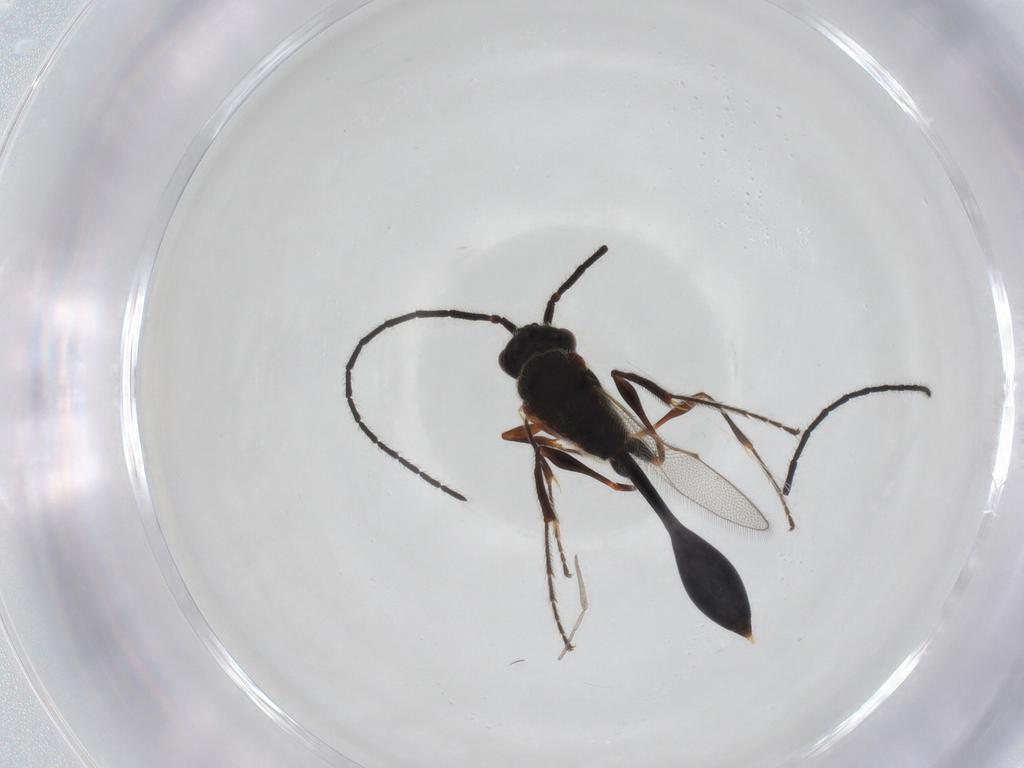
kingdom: Animalia
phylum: Arthropoda
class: Insecta
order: Hymenoptera
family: Diapriidae
